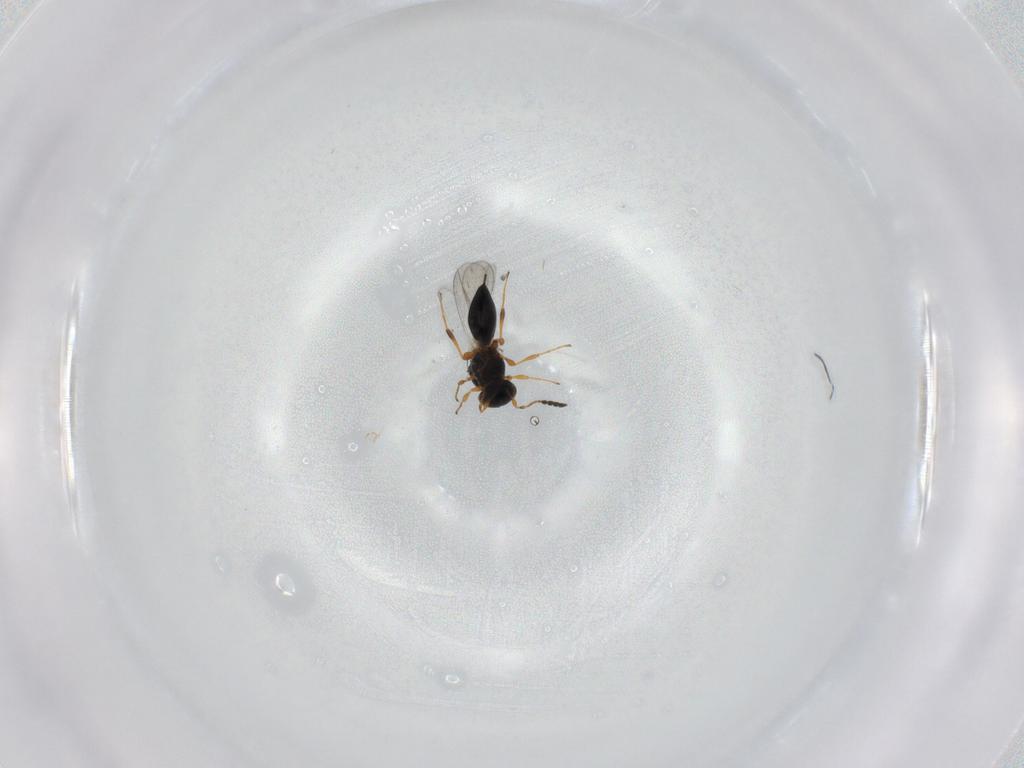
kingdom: Animalia
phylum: Arthropoda
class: Insecta
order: Hymenoptera
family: Platygastridae
